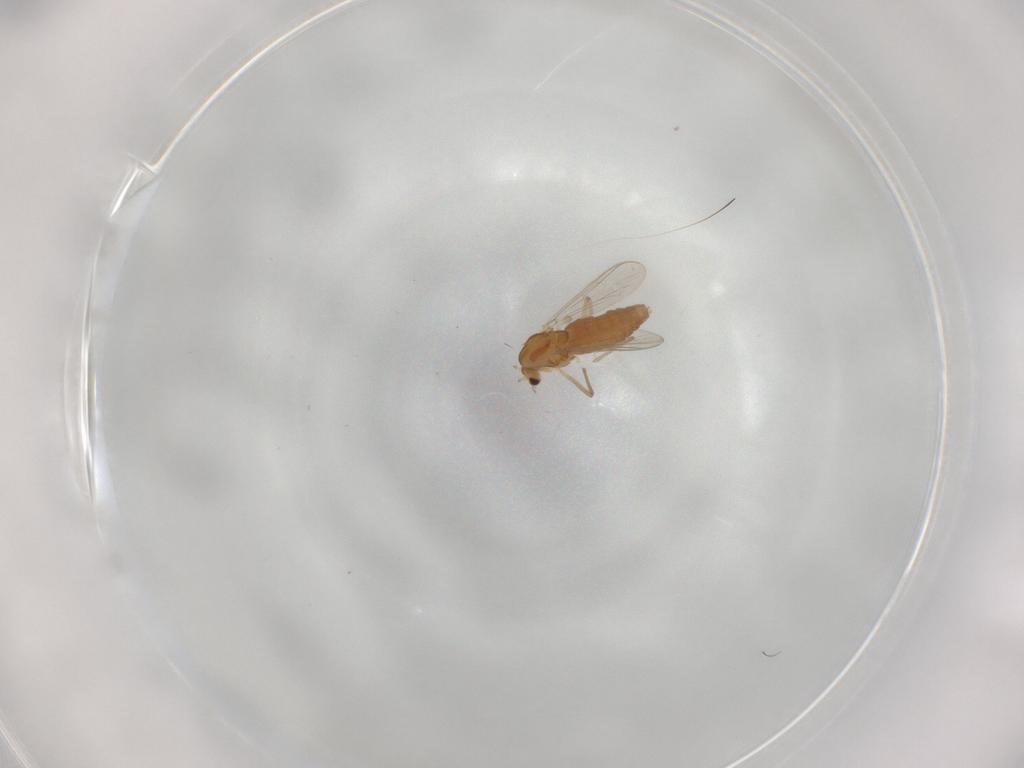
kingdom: Animalia
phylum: Arthropoda
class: Insecta
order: Diptera
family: Chironomidae
